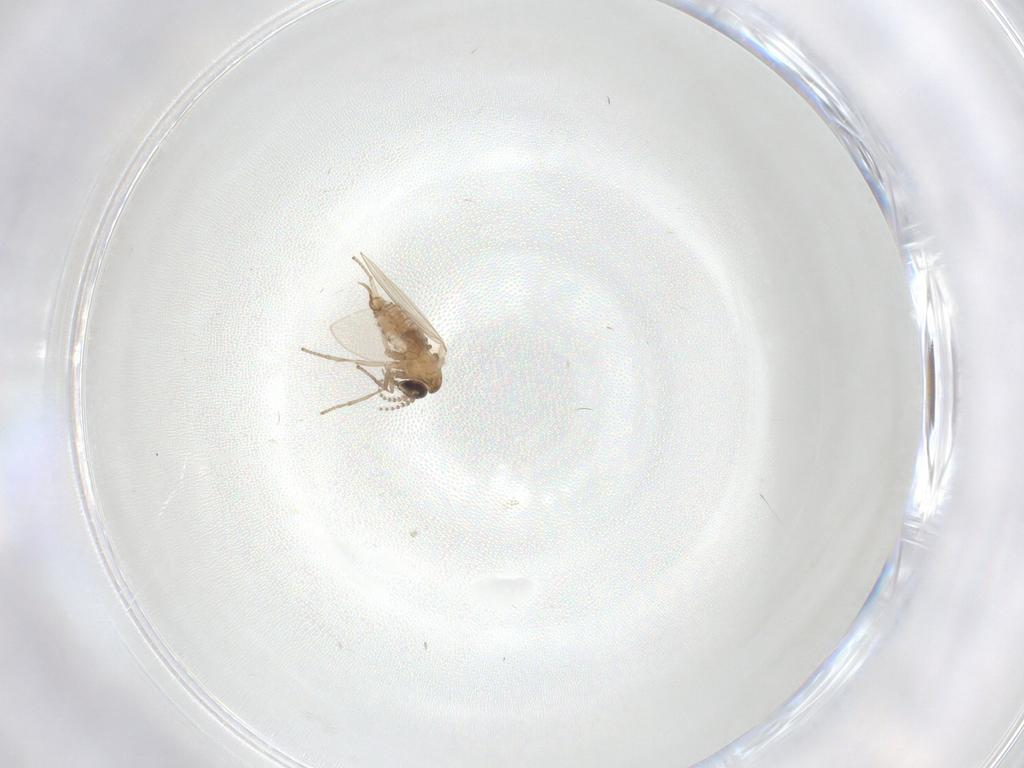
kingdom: Animalia
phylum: Arthropoda
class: Insecta
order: Diptera
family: Psychodidae
